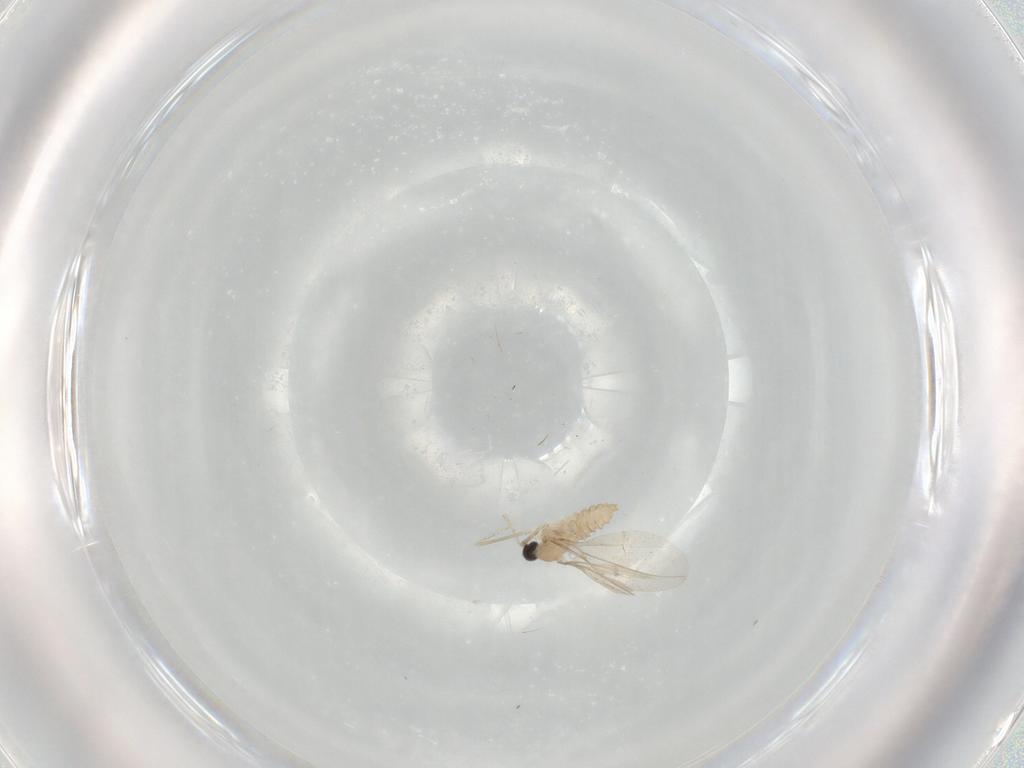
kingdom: Animalia
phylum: Arthropoda
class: Insecta
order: Diptera
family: Cecidomyiidae
